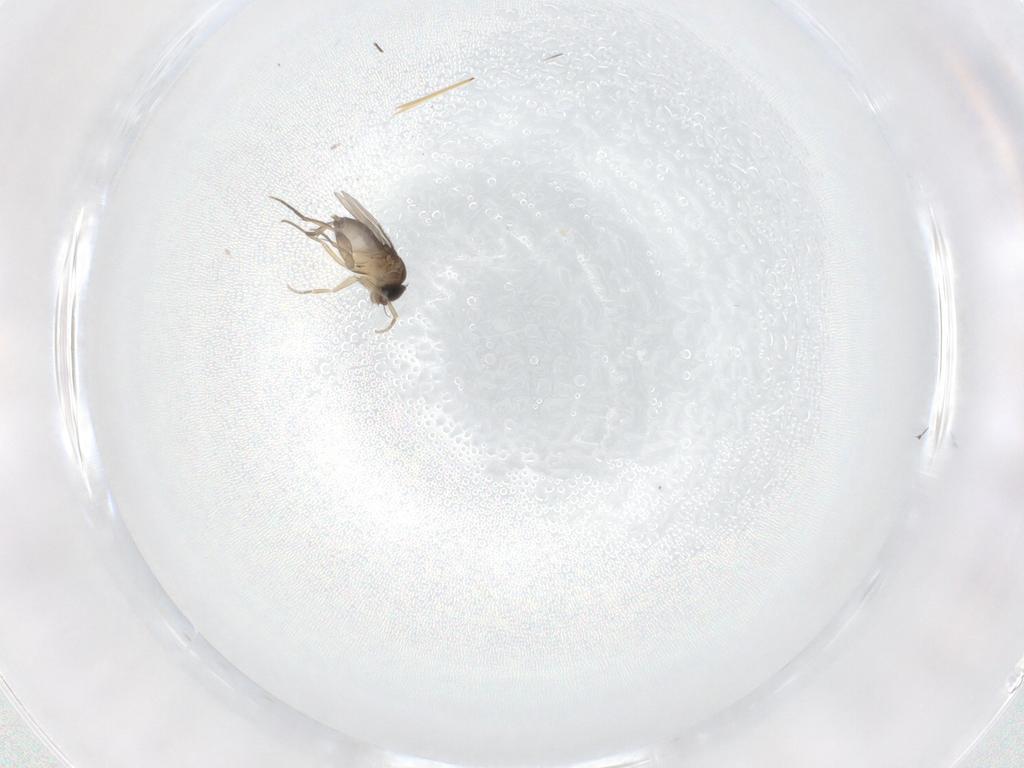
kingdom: Animalia
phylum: Arthropoda
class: Insecta
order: Diptera
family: Phoridae
